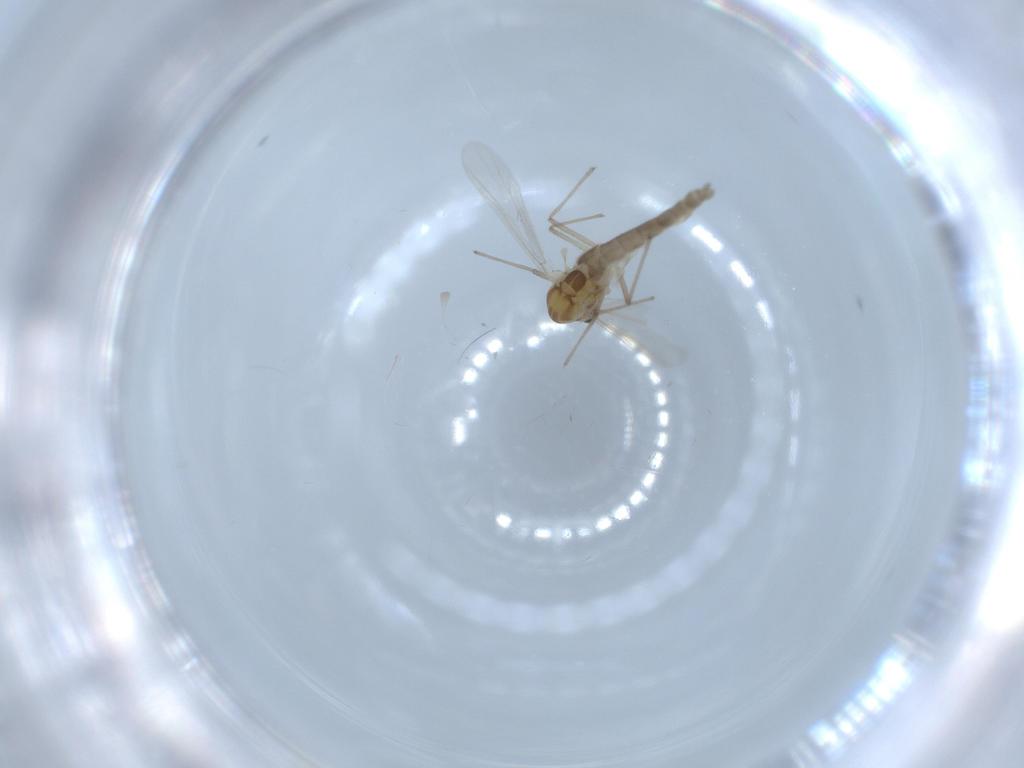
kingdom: Animalia
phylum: Arthropoda
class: Insecta
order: Diptera
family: Chironomidae
